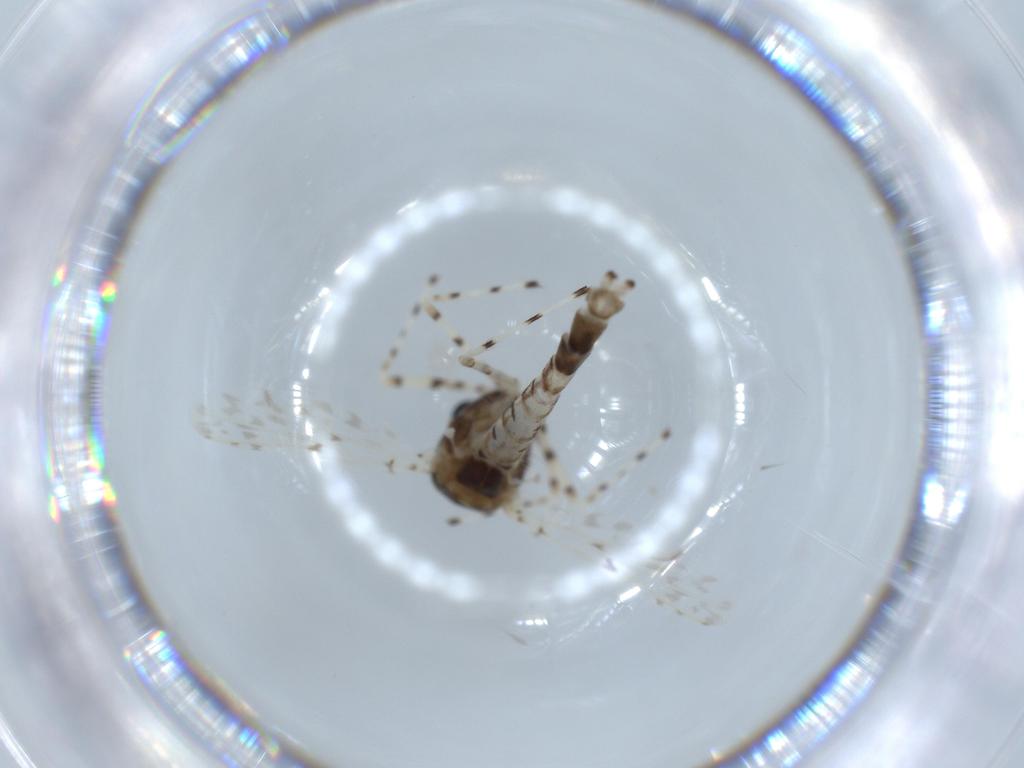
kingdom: Animalia
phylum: Arthropoda
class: Insecta
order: Diptera
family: Chironomidae
